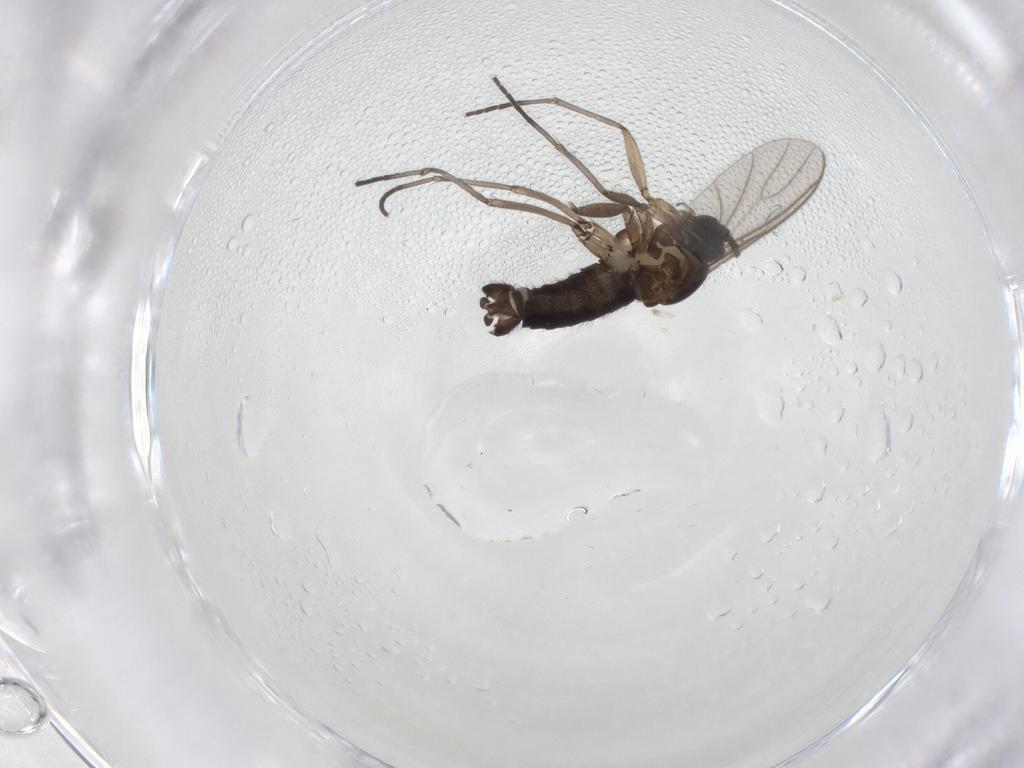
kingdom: Animalia
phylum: Arthropoda
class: Insecta
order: Diptera
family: Sciaridae
